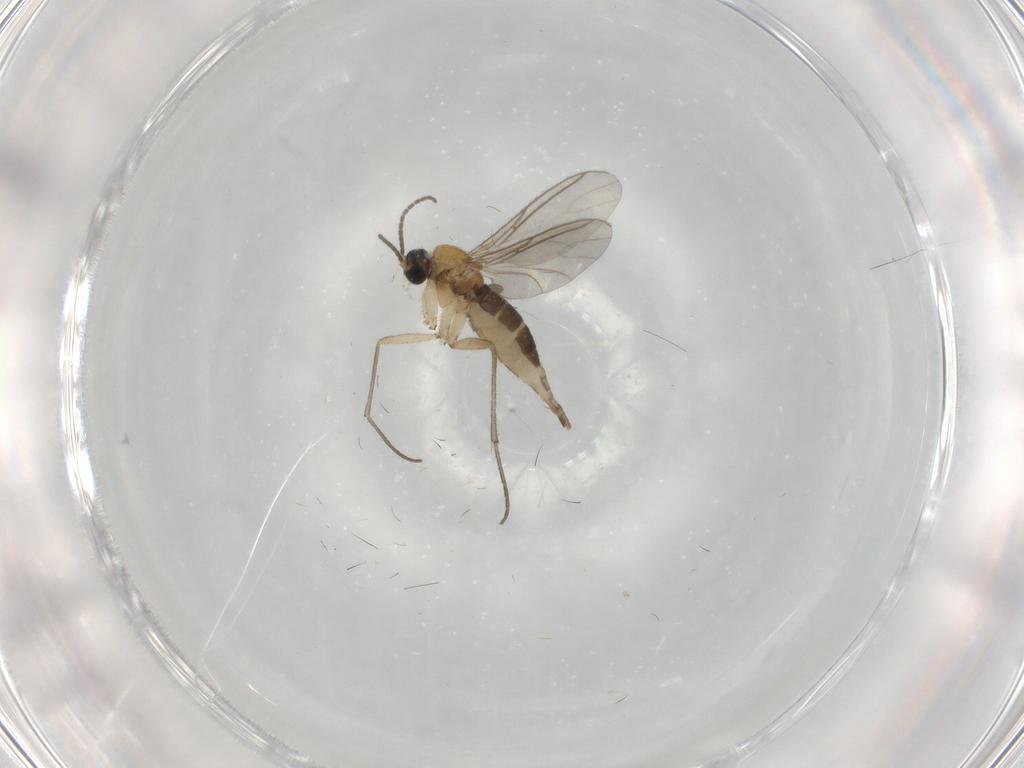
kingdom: Animalia
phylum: Arthropoda
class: Insecta
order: Diptera
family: Sciaridae
